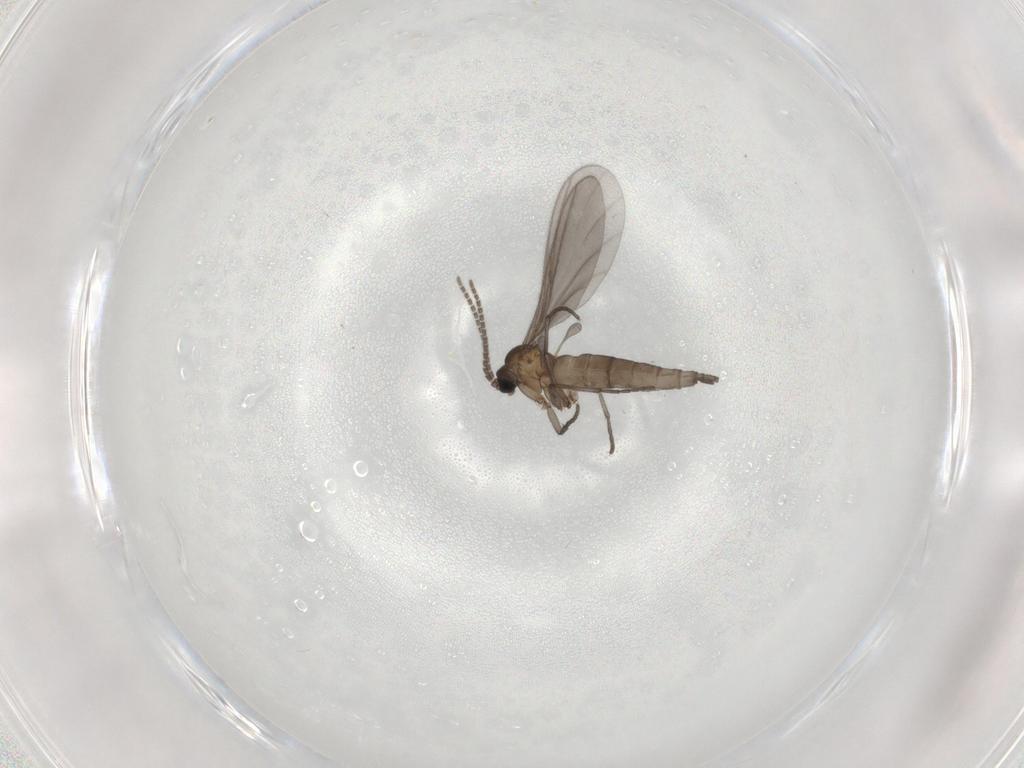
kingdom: Animalia
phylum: Arthropoda
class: Insecta
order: Diptera
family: Sciaridae
